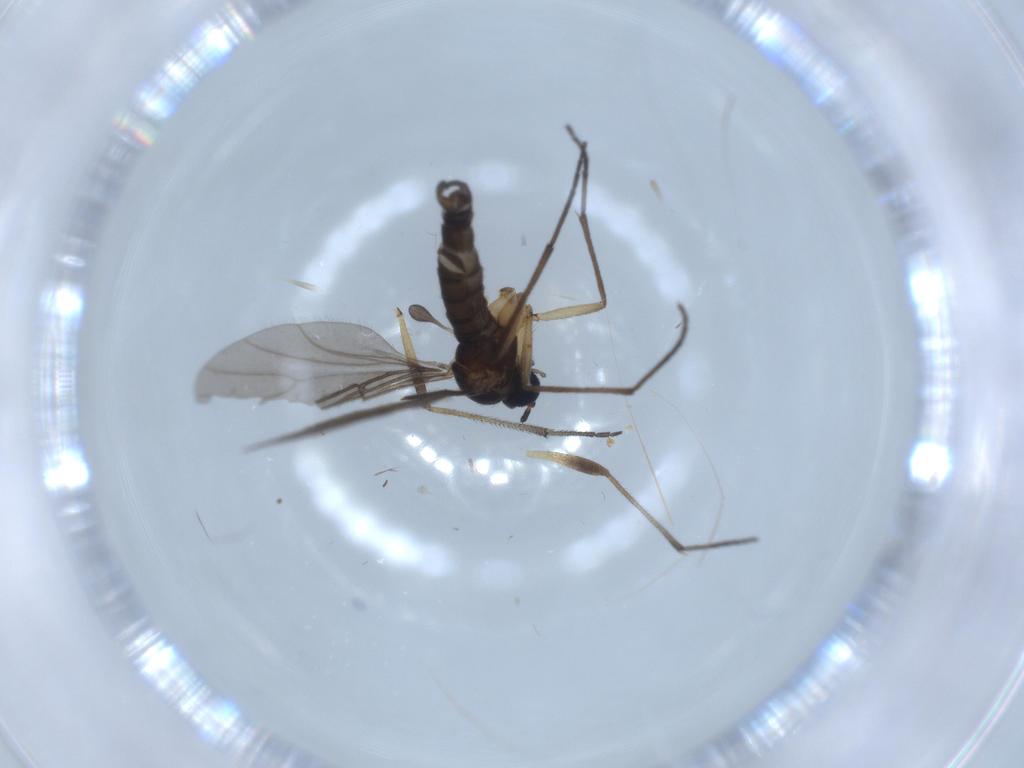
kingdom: Animalia
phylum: Arthropoda
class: Insecta
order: Diptera
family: Sciaridae
